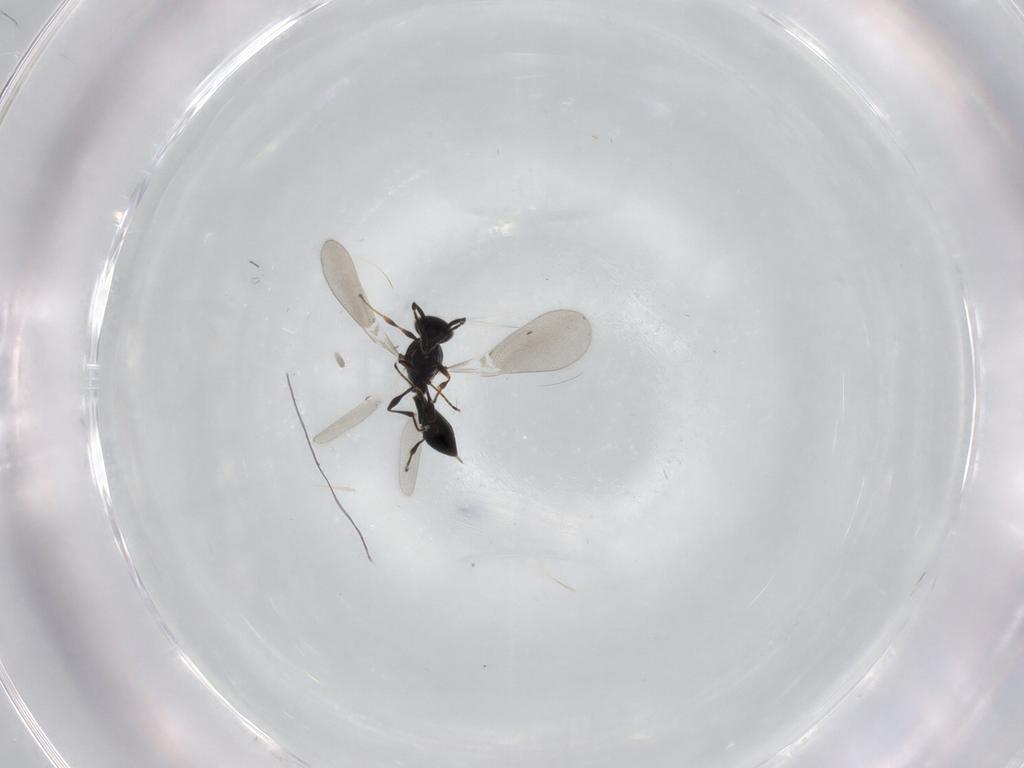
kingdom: Animalia
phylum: Arthropoda
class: Insecta
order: Hymenoptera
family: Platygastridae
